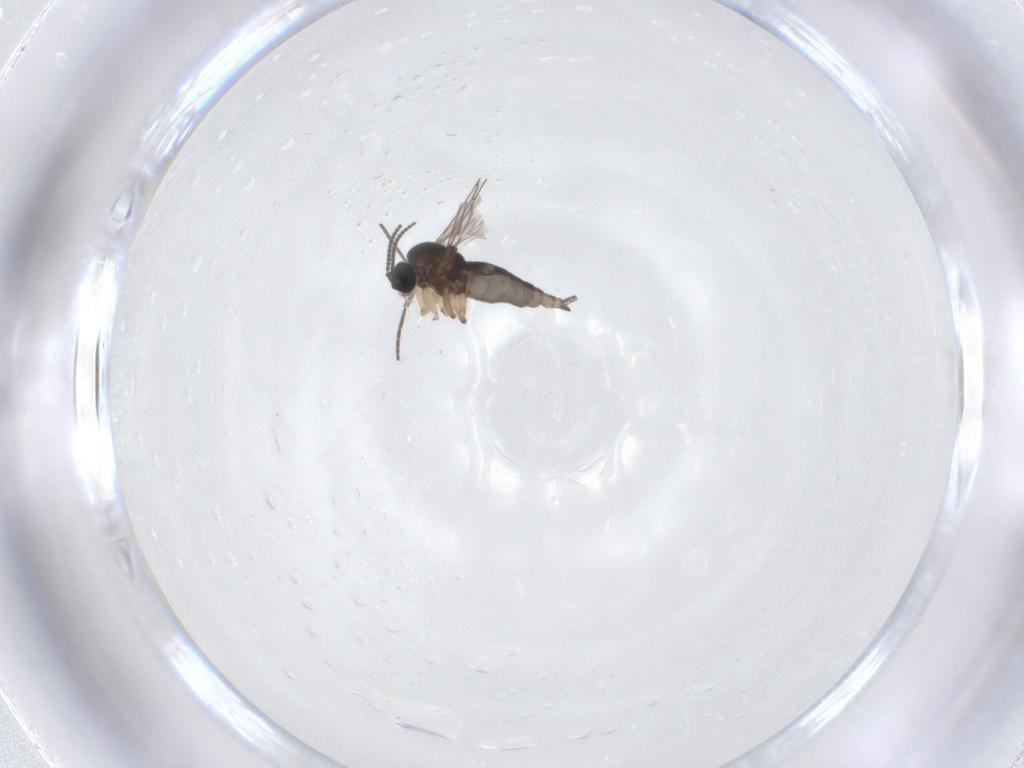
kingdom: Animalia
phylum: Arthropoda
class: Insecta
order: Diptera
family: Sciaridae
